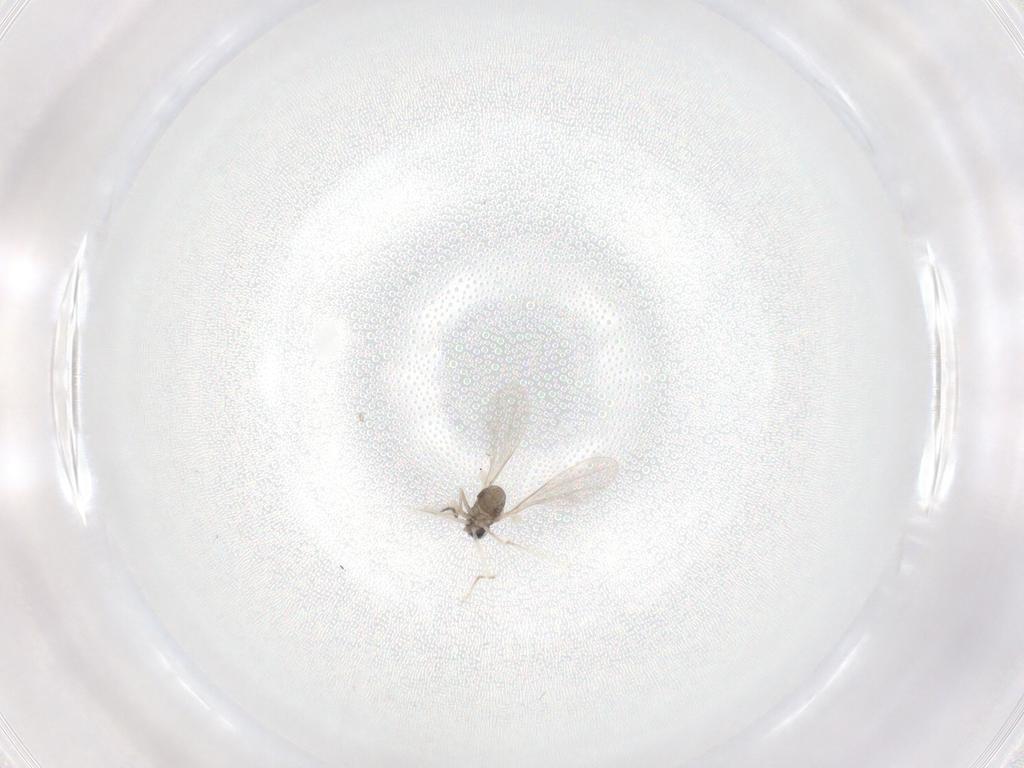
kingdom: Animalia
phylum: Arthropoda
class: Insecta
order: Diptera
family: Cecidomyiidae
